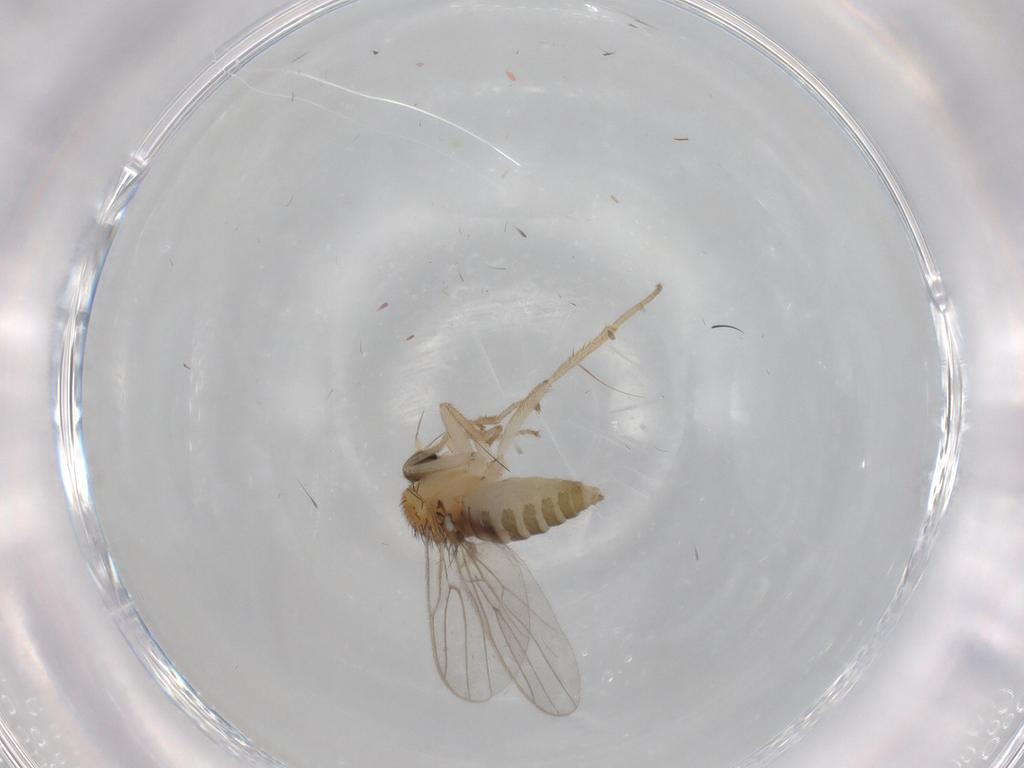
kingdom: Animalia
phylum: Arthropoda
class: Insecta
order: Diptera
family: Hybotidae
